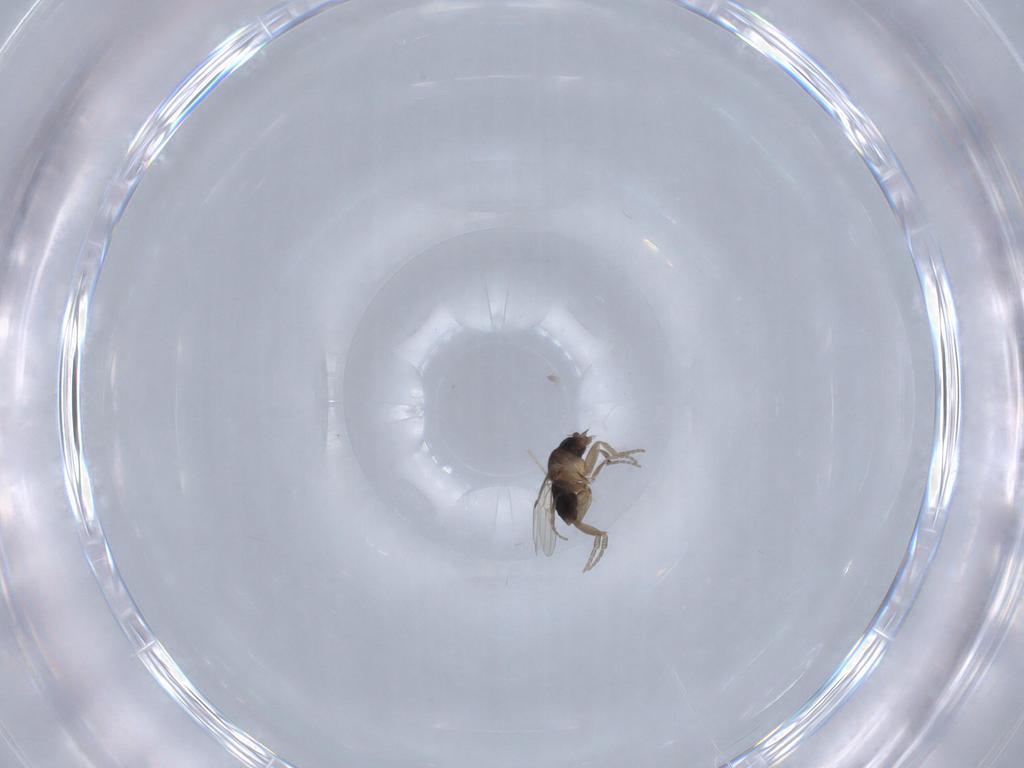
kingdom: Animalia
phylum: Arthropoda
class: Insecta
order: Diptera
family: Phoridae
